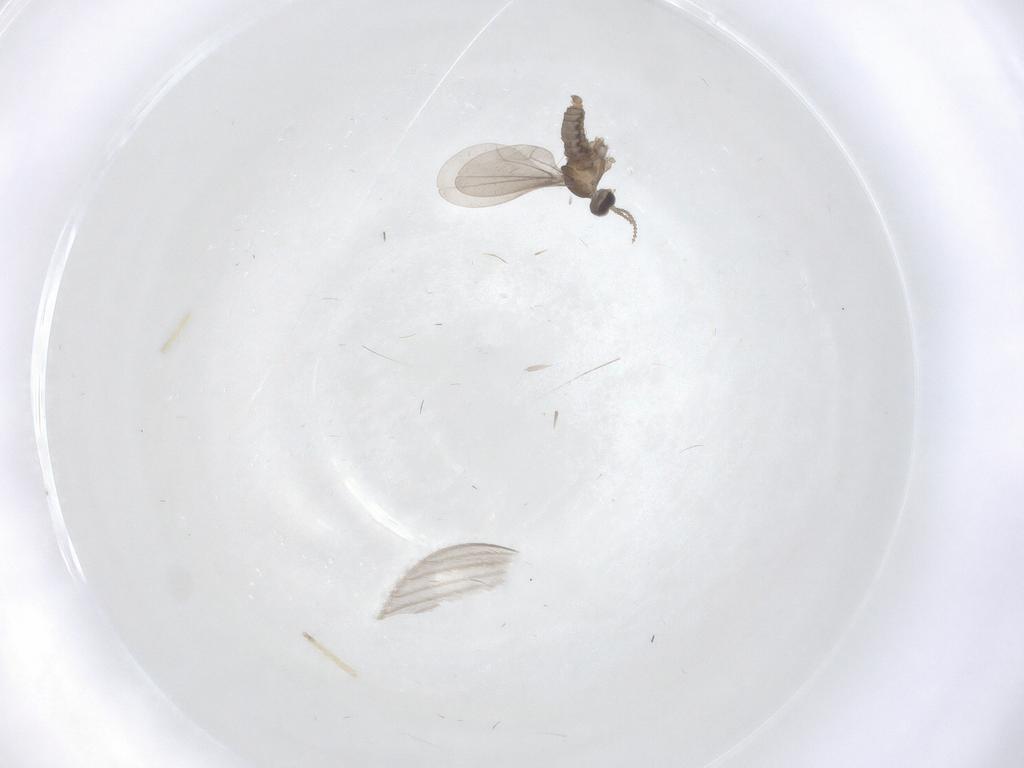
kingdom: Animalia
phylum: Arthropoda
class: Insecta
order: Diptera
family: Cecidomyiidae
